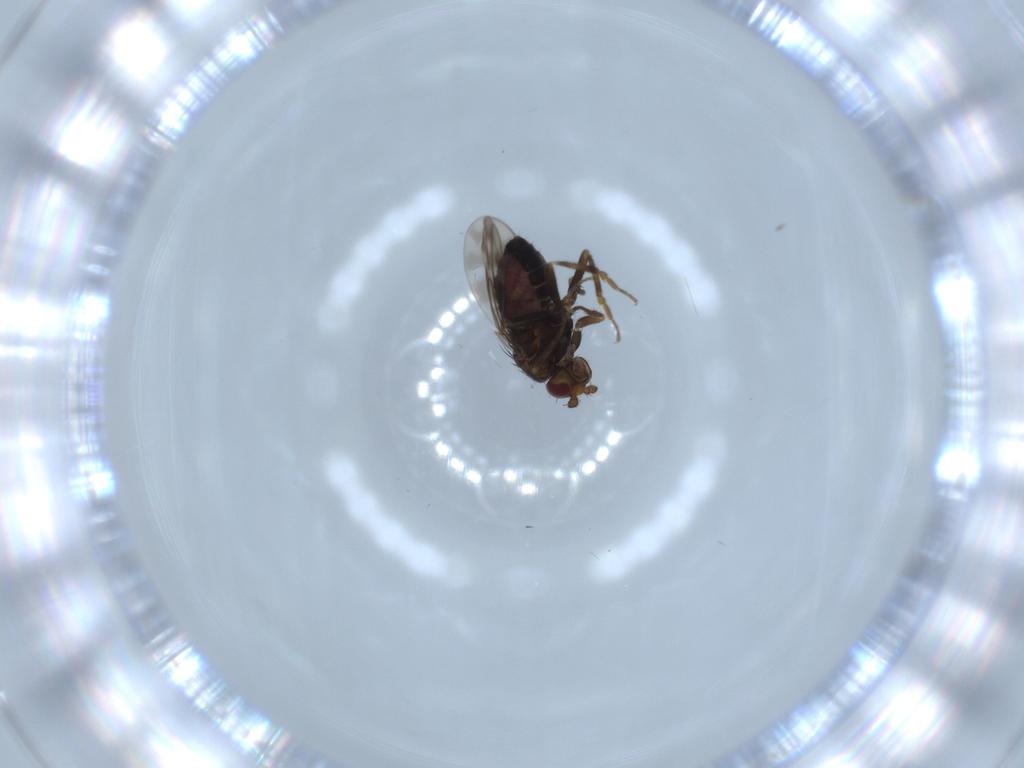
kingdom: Animalia
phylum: Arthropoda
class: Insecta
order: Diptera
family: Sphaeroceridae
